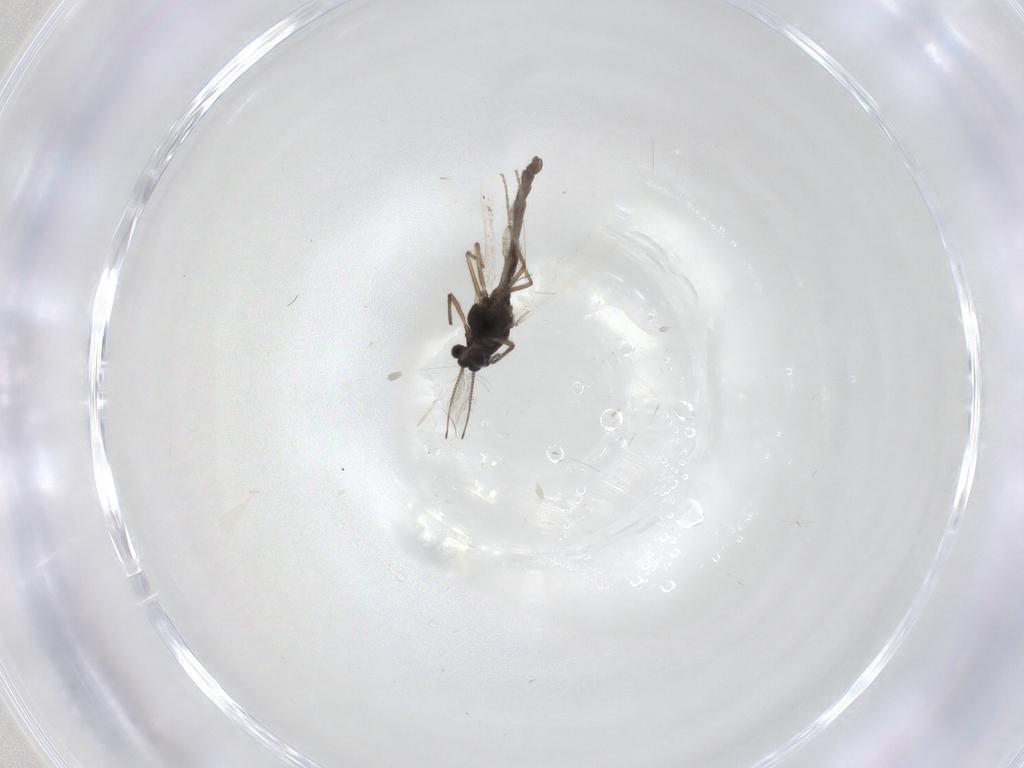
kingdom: Animalia
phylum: Arthropoda
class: Insecta
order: Diptera
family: Chironomidae
